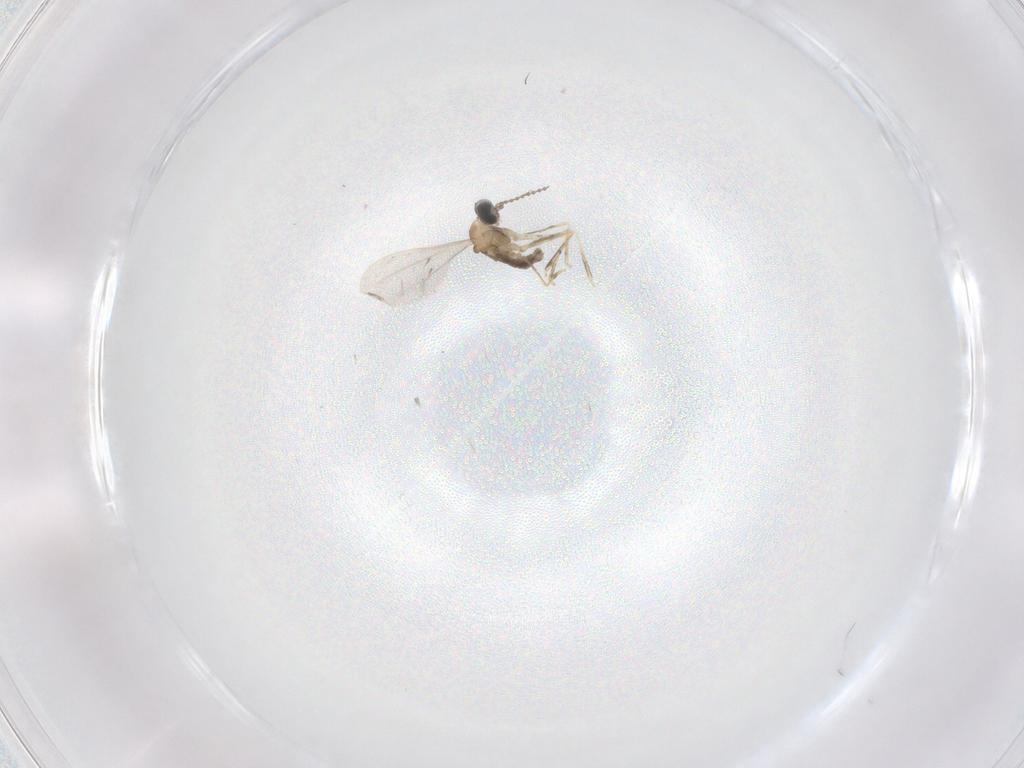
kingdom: Animalia
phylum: Arthropoda
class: Insecta
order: Diptera
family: Cecidomyiidae
